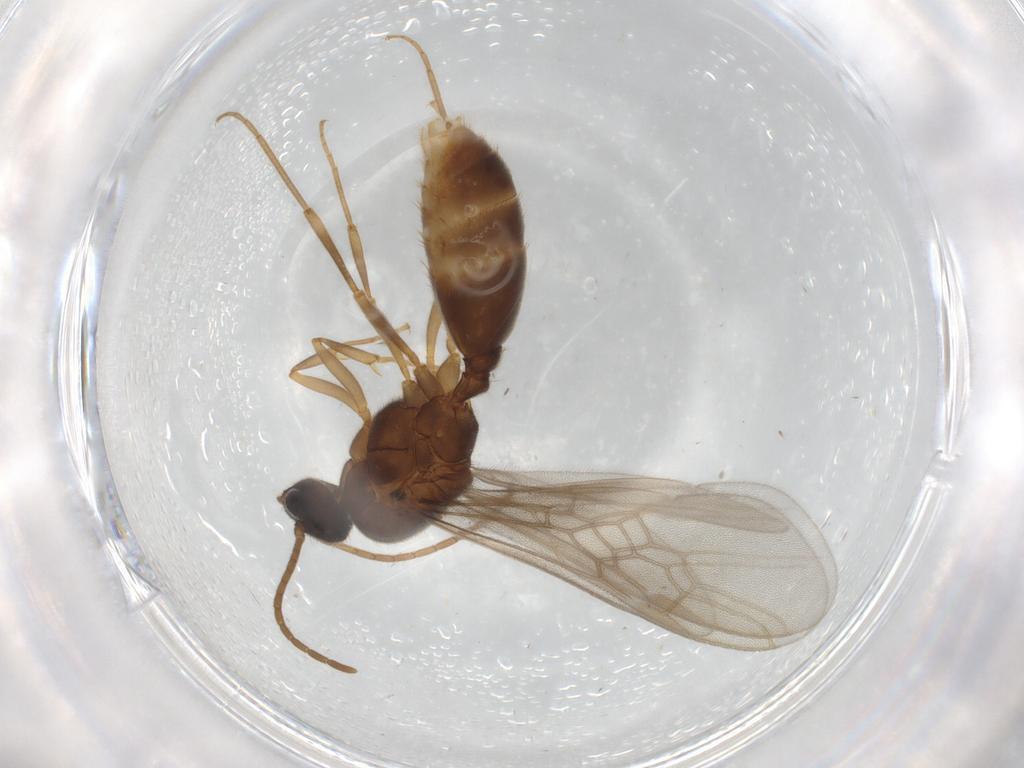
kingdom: Animalia
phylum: Arthropoda
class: Insecta
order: Hymenoptera
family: Formicidae
